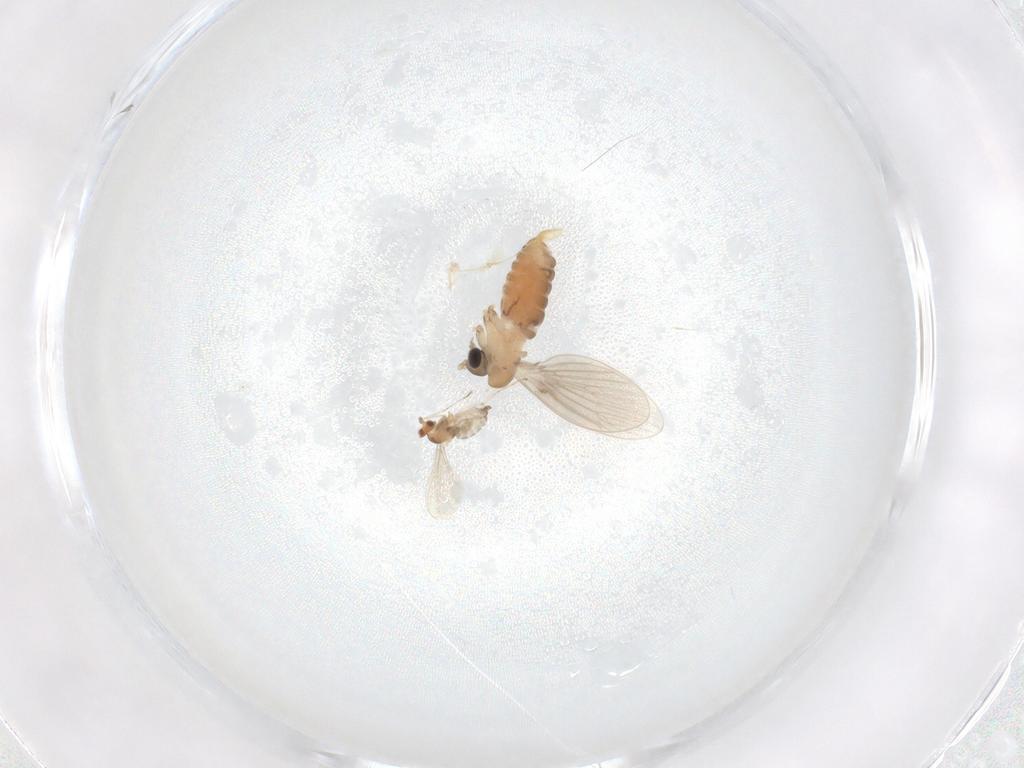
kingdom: Animalia
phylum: Arthropoda
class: Insecta
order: Diptera
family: Psychodidae
